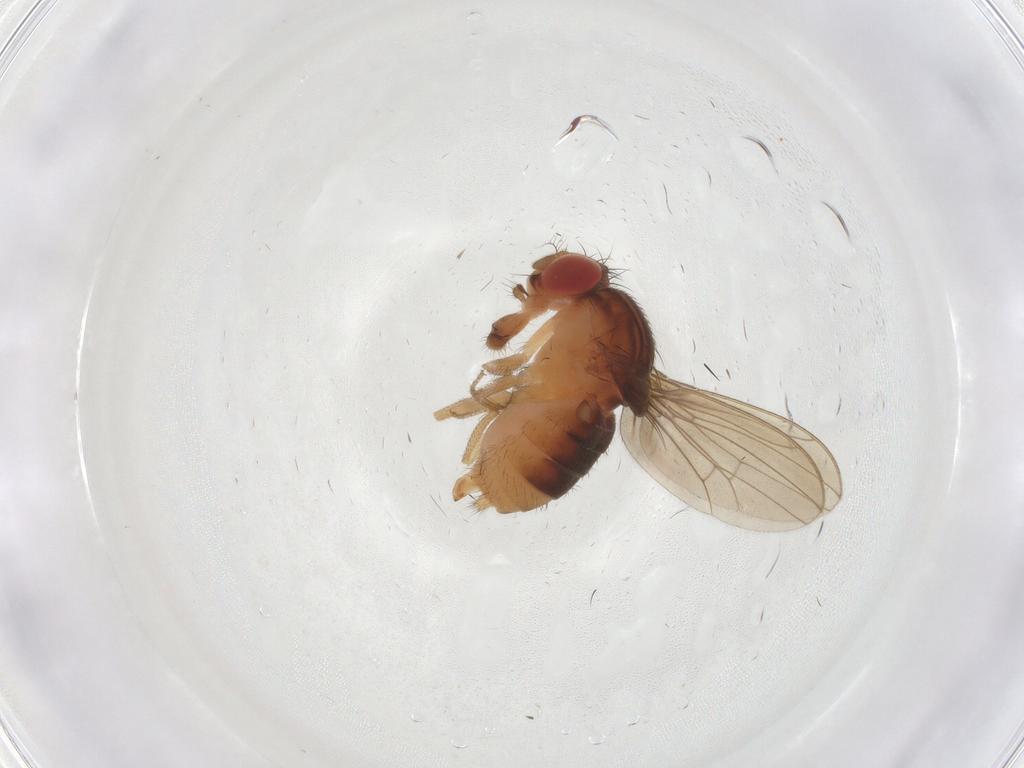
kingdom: Animalia
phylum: Arthropoda
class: Insecta
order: Diptera
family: Drosophilidae
